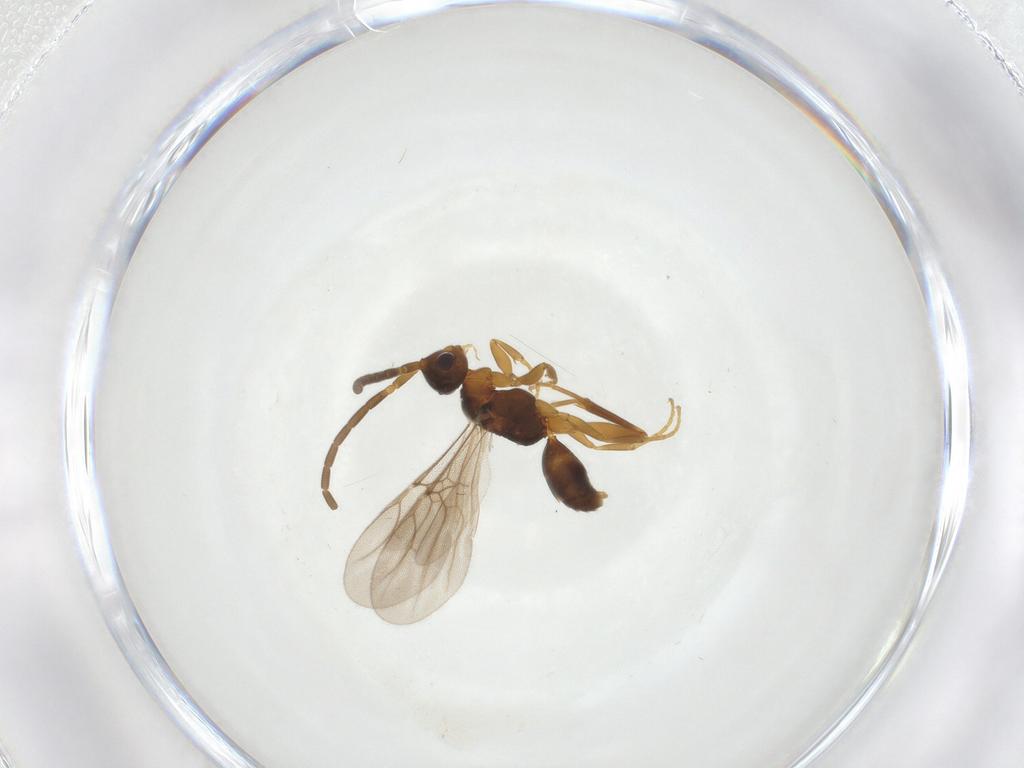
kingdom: Animalia
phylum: Arthropoda
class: Insecta
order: Hymenoptera
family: Embolemidae
